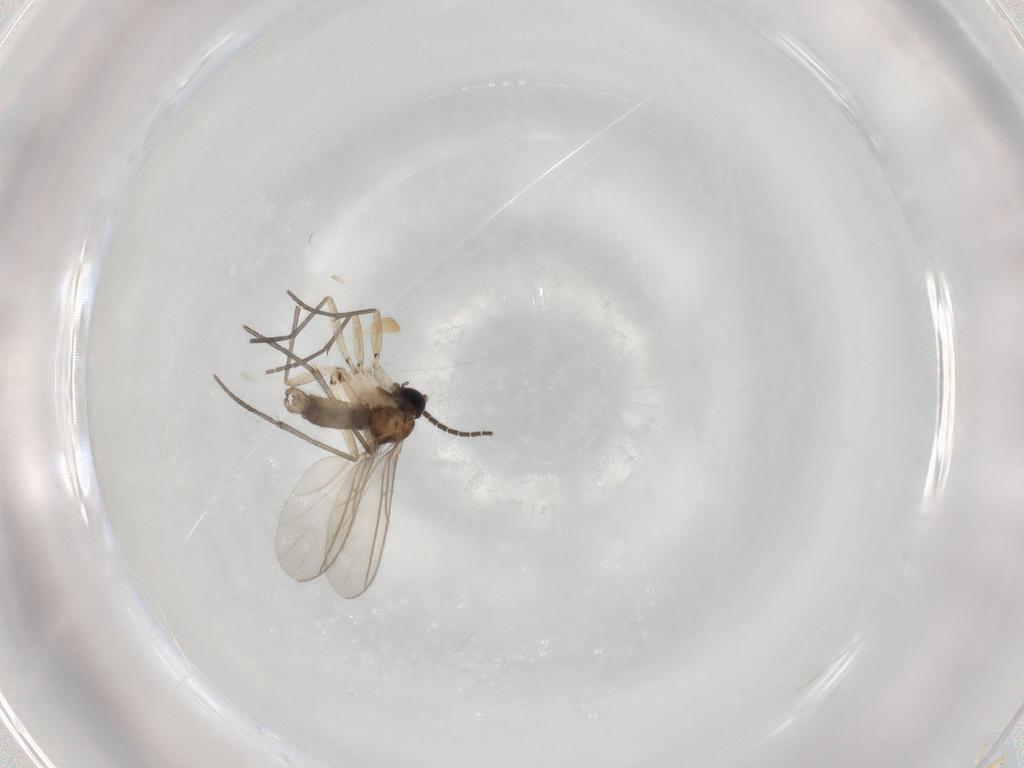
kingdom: Animalia
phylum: Arthropoda
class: Insecta
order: Diptera
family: Sciaridae
